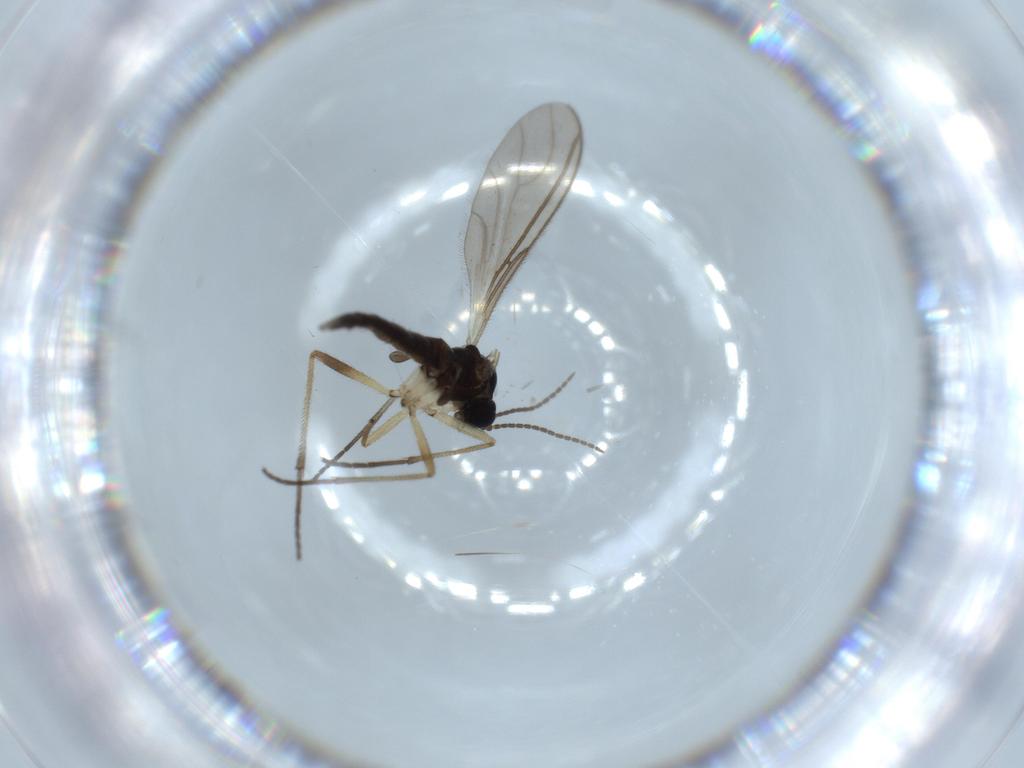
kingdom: Animalia
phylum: Arthropoda
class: Insecta
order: Diptera
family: Sciaridae
